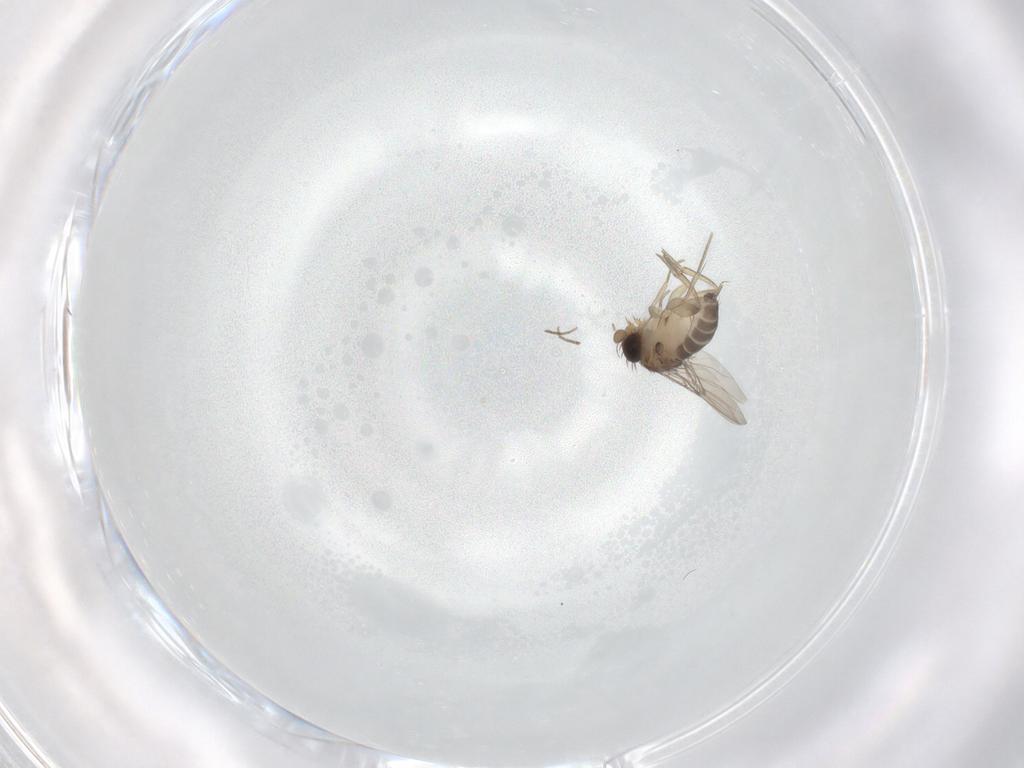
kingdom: Animalia
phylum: Arthropoda
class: Insecta
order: Diptera
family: Phoridae
